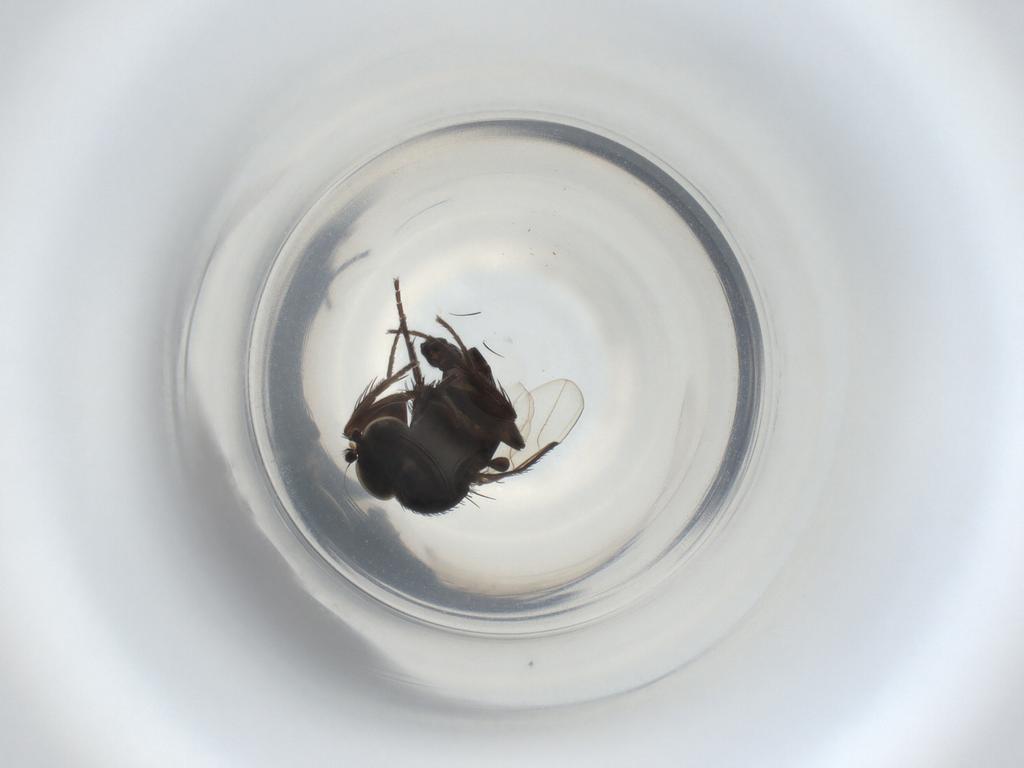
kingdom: Animalia
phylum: Arthropoda
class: Insecta
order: Diptera
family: Phoridae
